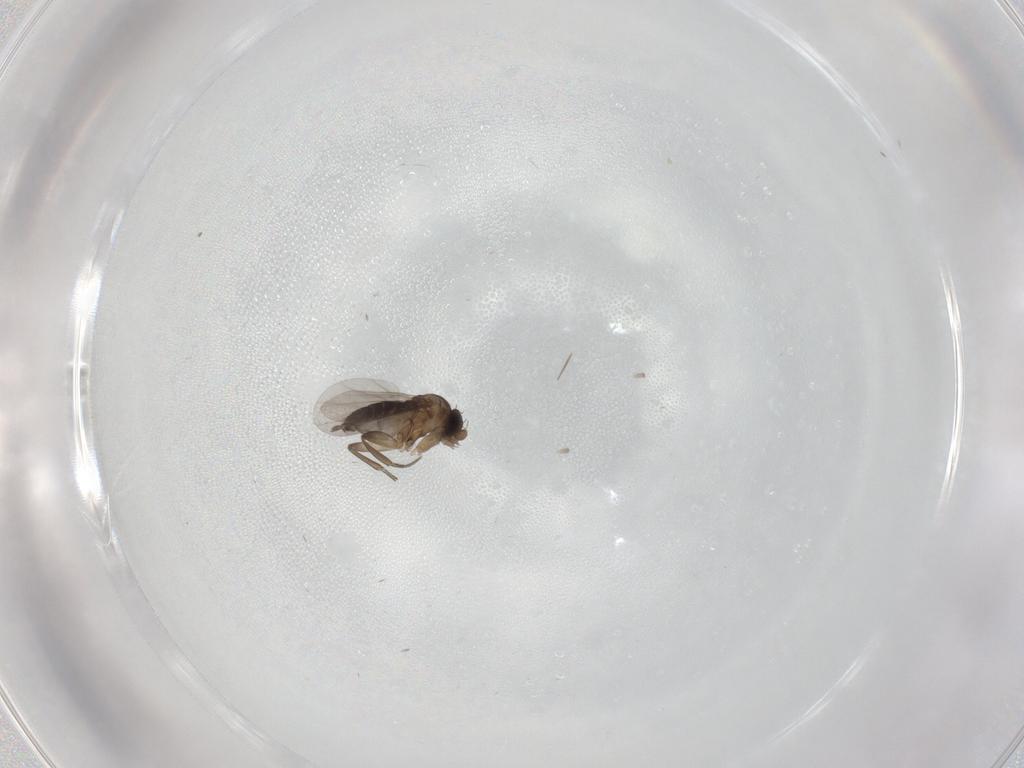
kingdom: Animalia
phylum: Arthropoda
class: Insecta
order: Diptera
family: Phoridae
